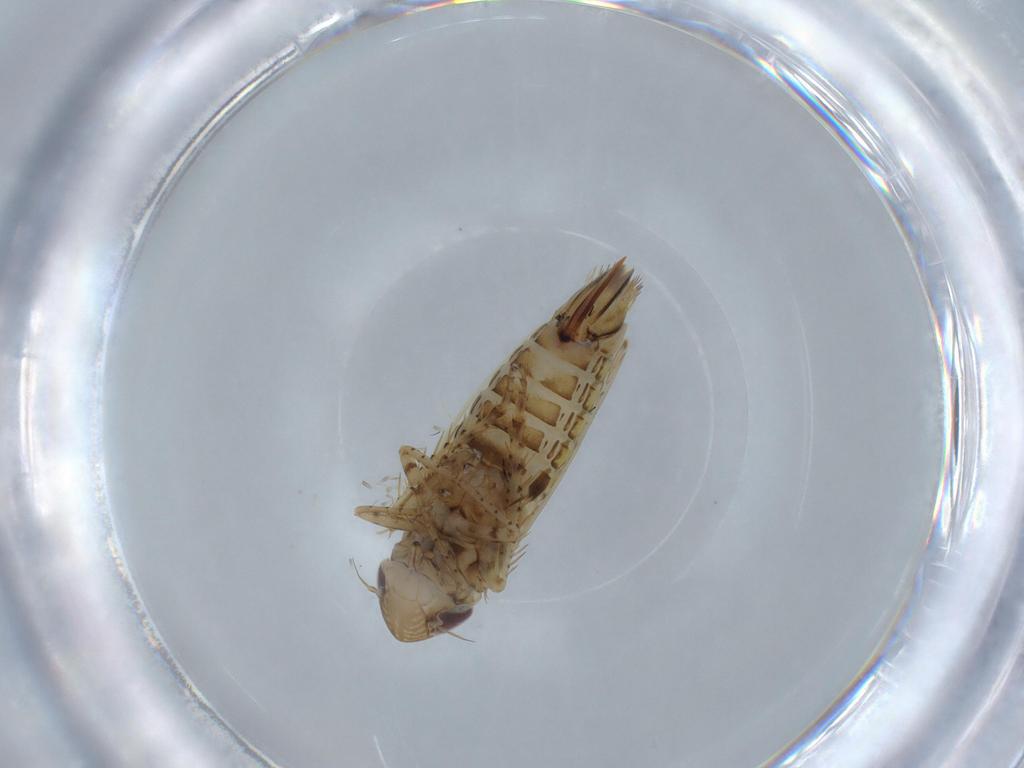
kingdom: Animalia
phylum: Arthropoda
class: Insecta
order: Hemiptera
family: Cicadellidae
